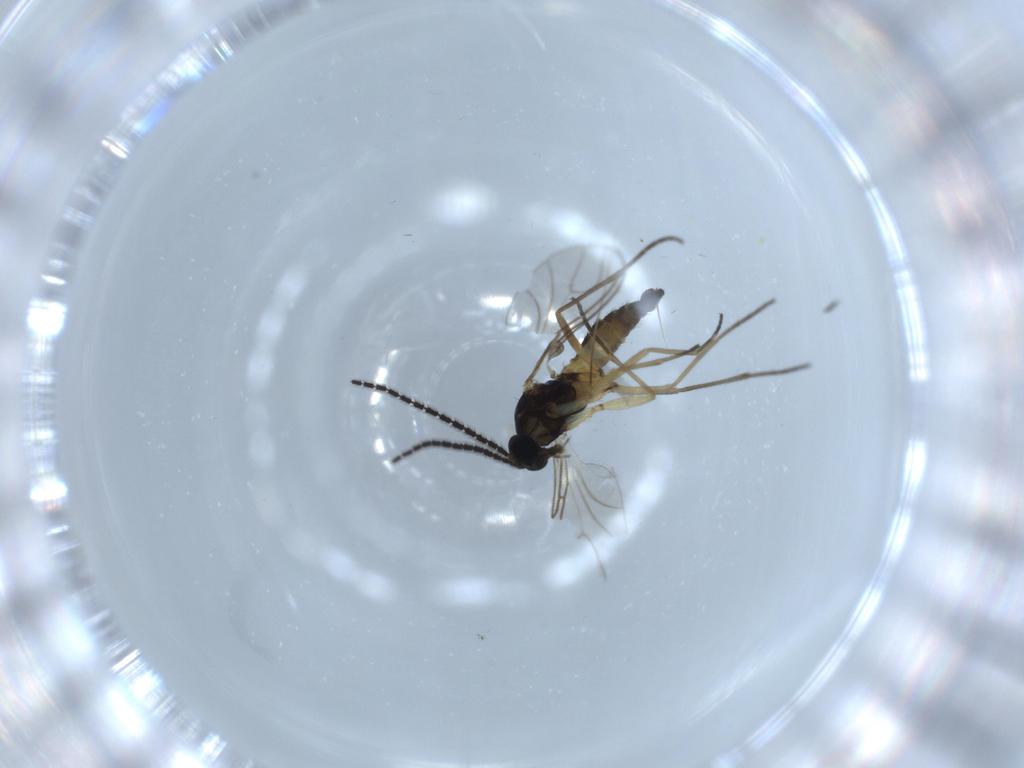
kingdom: Animalia
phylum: Arthropoda
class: Insecta
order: Diptera
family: Sciaridae
